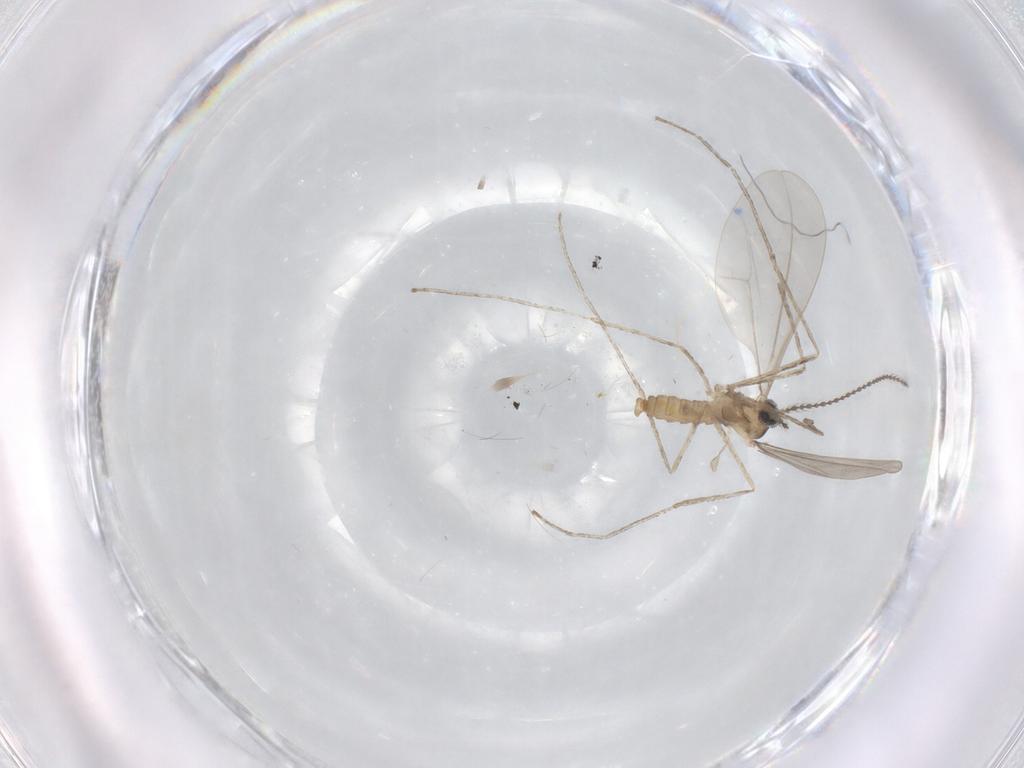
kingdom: Animalia
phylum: Arthropoda
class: Insecta
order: Diptera
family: Cecidomyiidae
